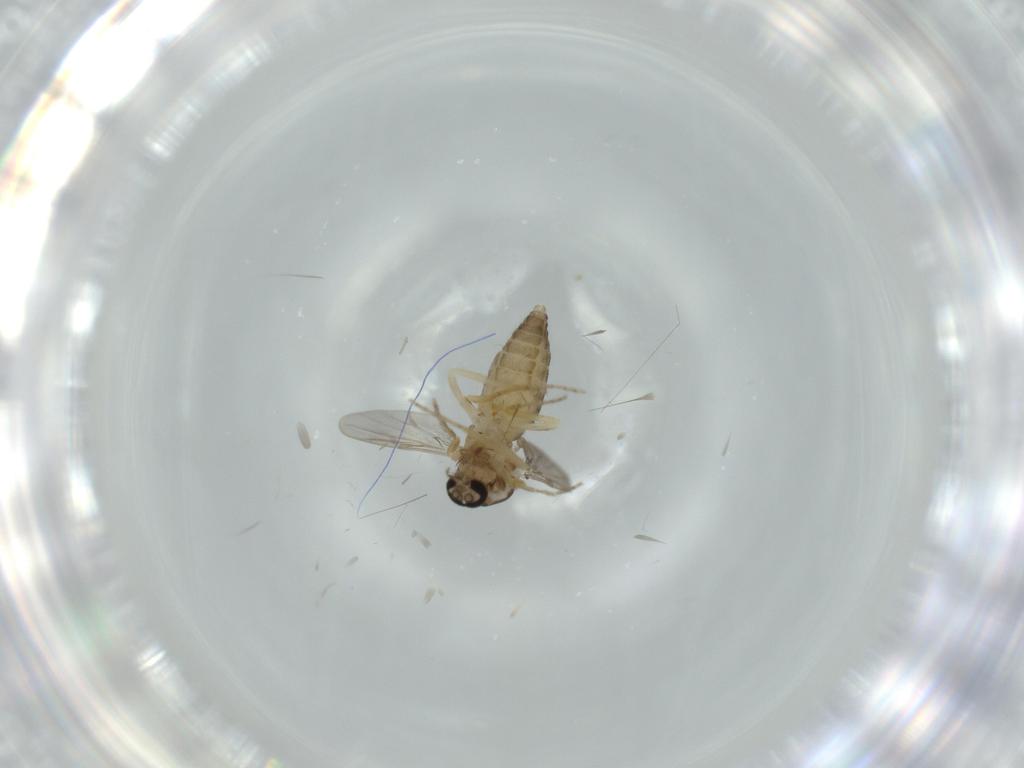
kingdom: Animalia
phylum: Arthropoda
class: Insecta
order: Diptera
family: Ceratopogonidae
